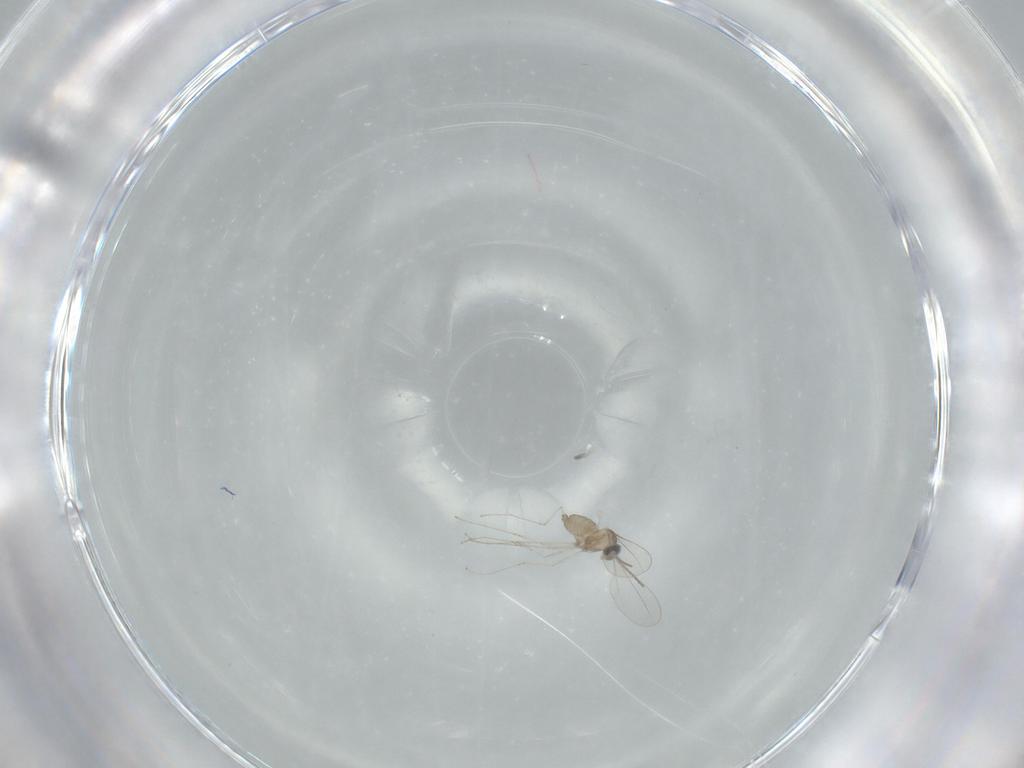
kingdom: Animalia
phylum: Arthropoda
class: Insecta
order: Diptera
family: Cecidomyiidae
